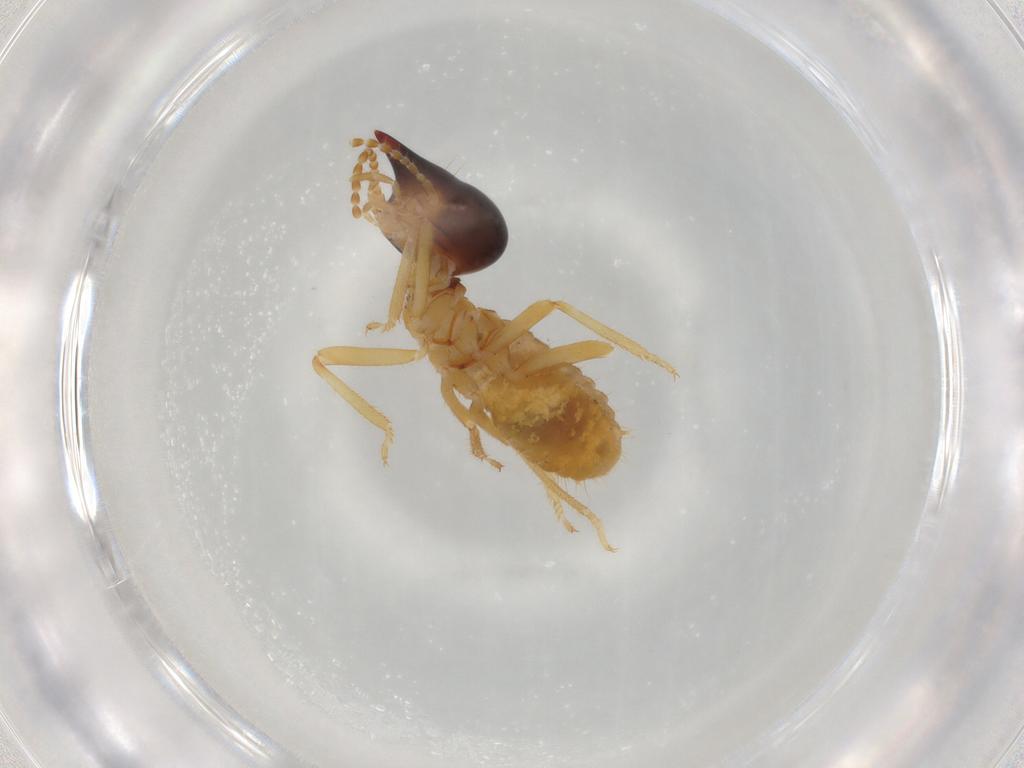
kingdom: Animalia
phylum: Arthropoda
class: Insecta
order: Blattodea
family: Termitidae
